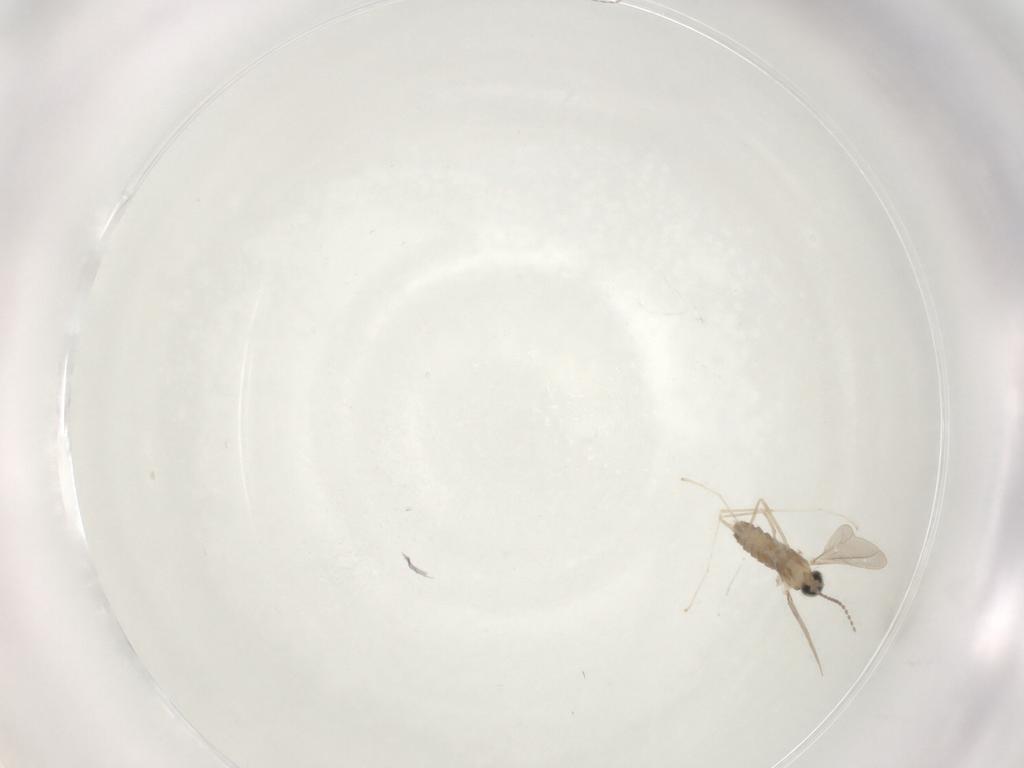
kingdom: Animalia
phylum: Arthropoda
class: Insecta
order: Diptera
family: Cecidomyiidae
